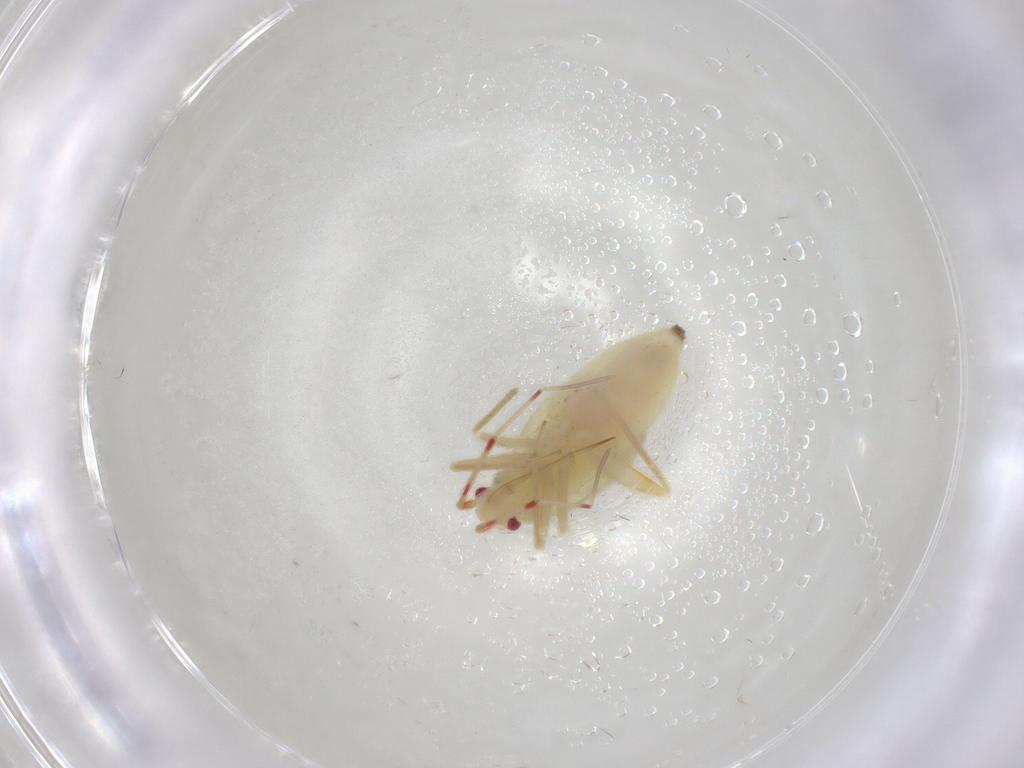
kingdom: Animalia
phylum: Arthropoda
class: Insecta
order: Hemiptera
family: Miridae
